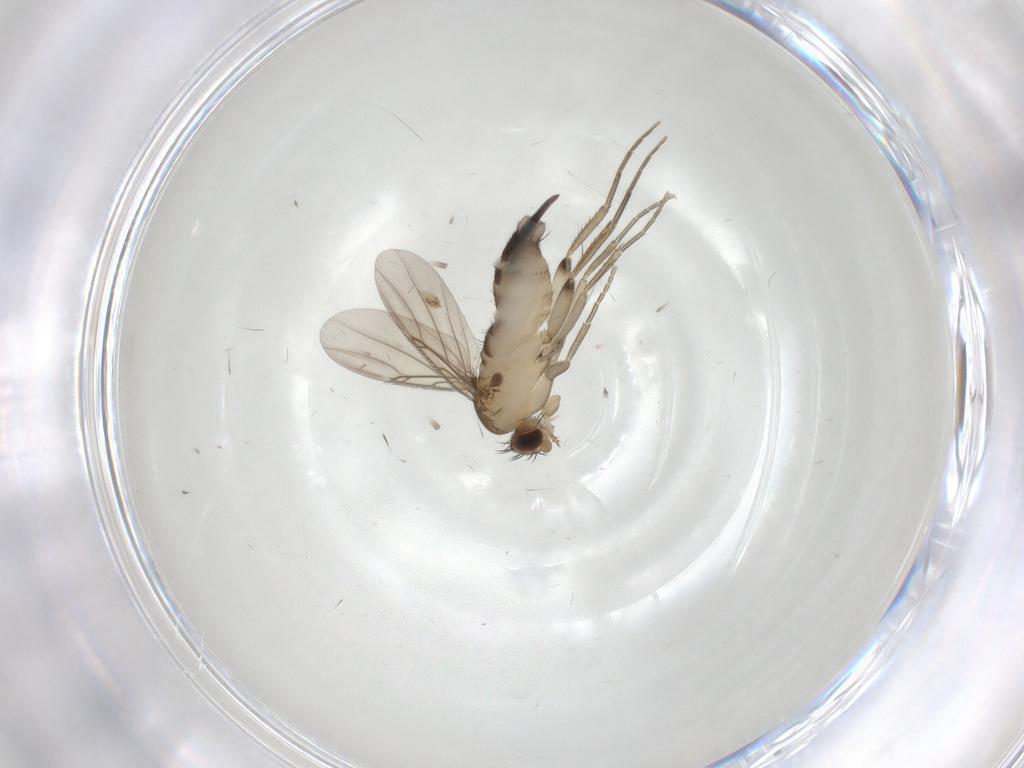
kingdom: Animalia
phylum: Arthropoda
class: Insecta
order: Diptera
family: Phoridae
